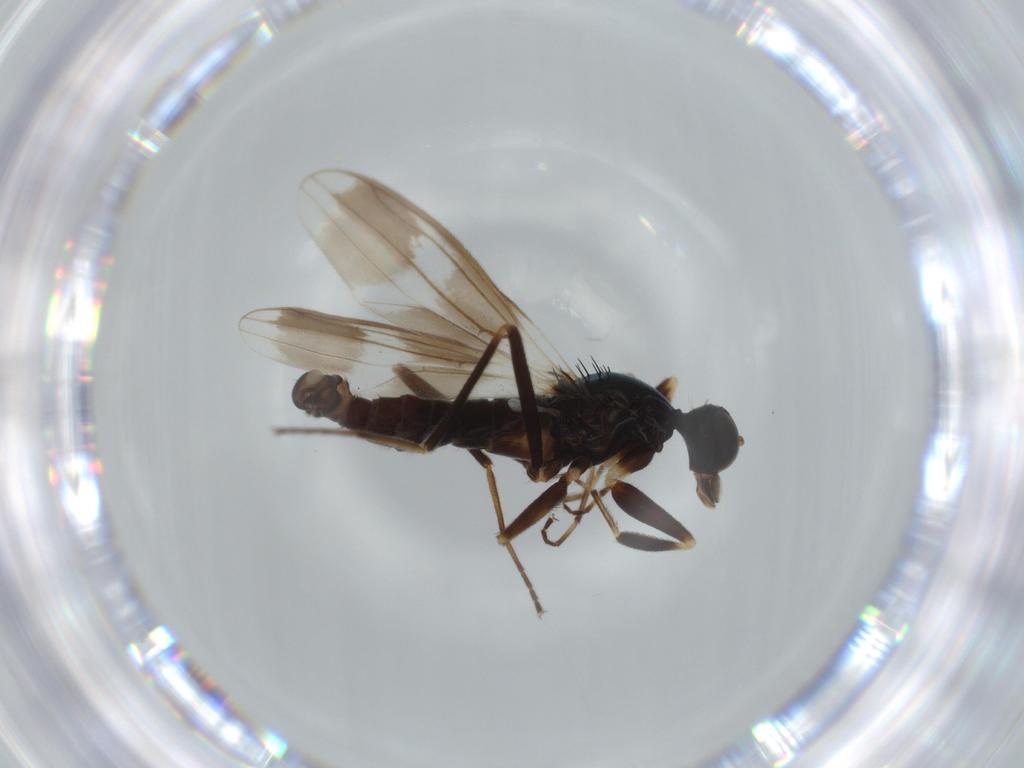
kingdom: Animalia
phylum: Arthropoda
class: Insecta
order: Diptera
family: Hybotidae
